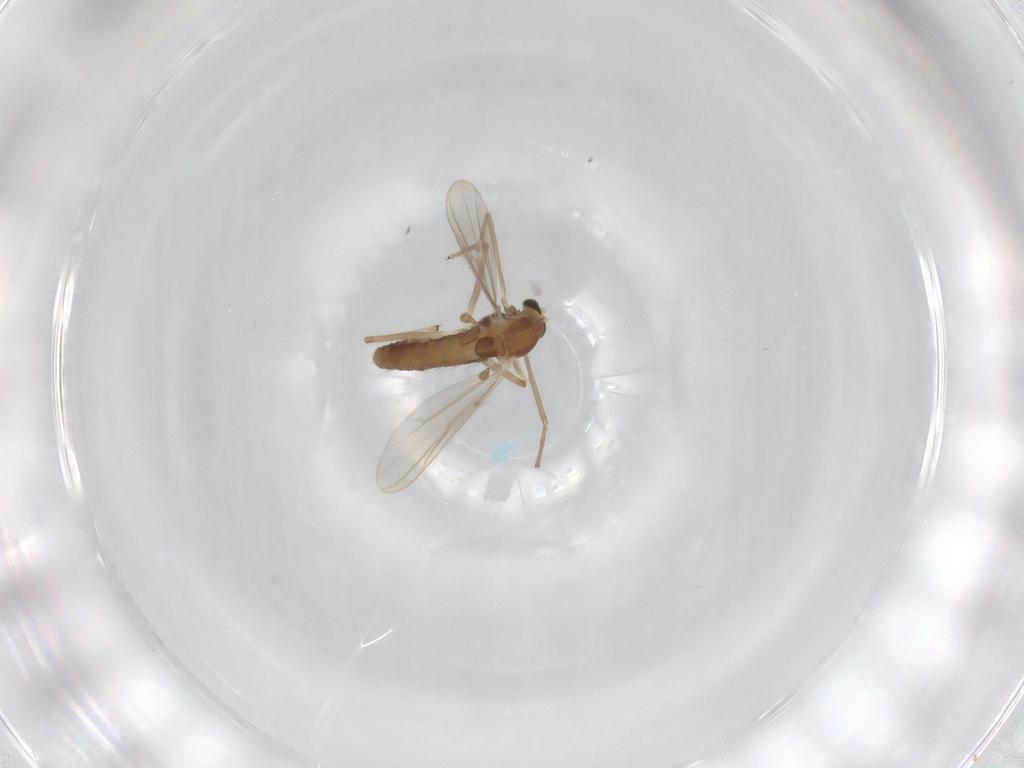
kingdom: Animalia
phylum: Arthropoda
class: Insecta
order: Diptera
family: Chironomidae
